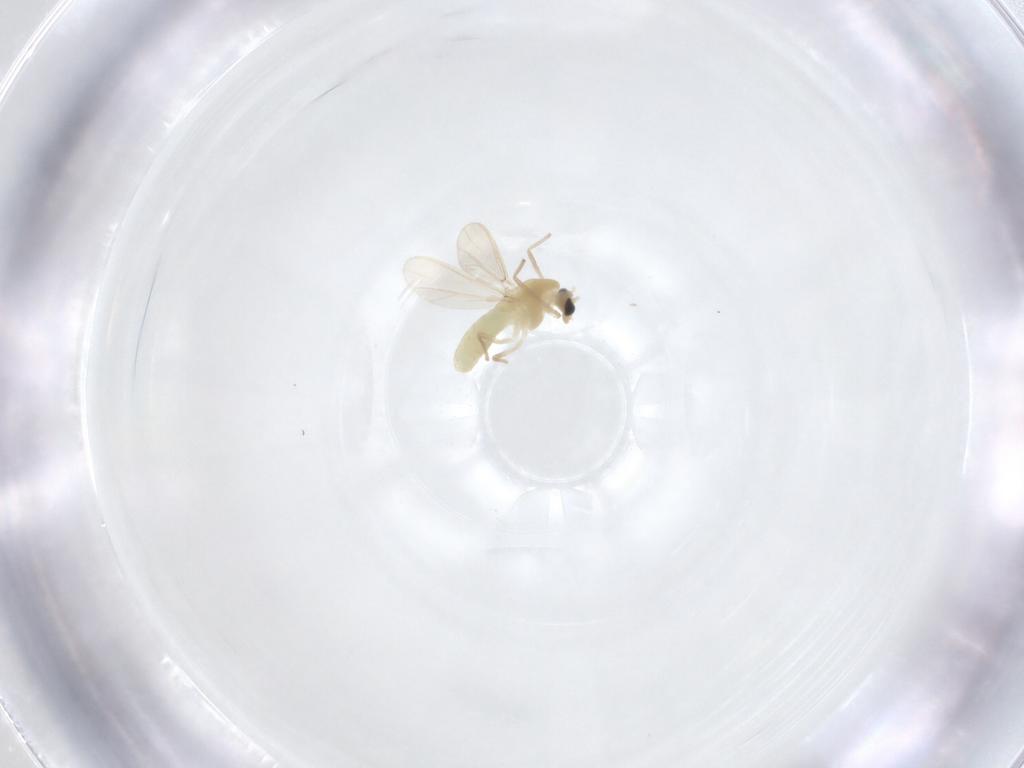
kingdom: Animalia
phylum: Arthropoda
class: Insecta
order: Diptera
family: Chironomidae
